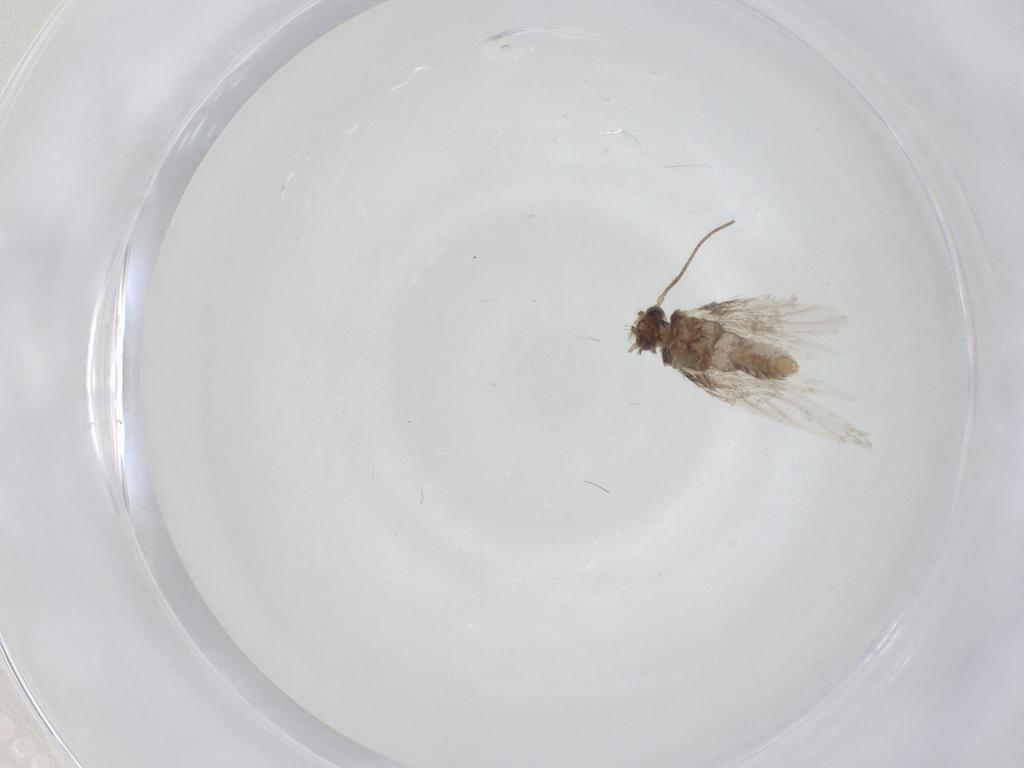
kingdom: Animalia
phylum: Arthropoda
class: Insecta
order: Lepidoptera
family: Nepticulidae
